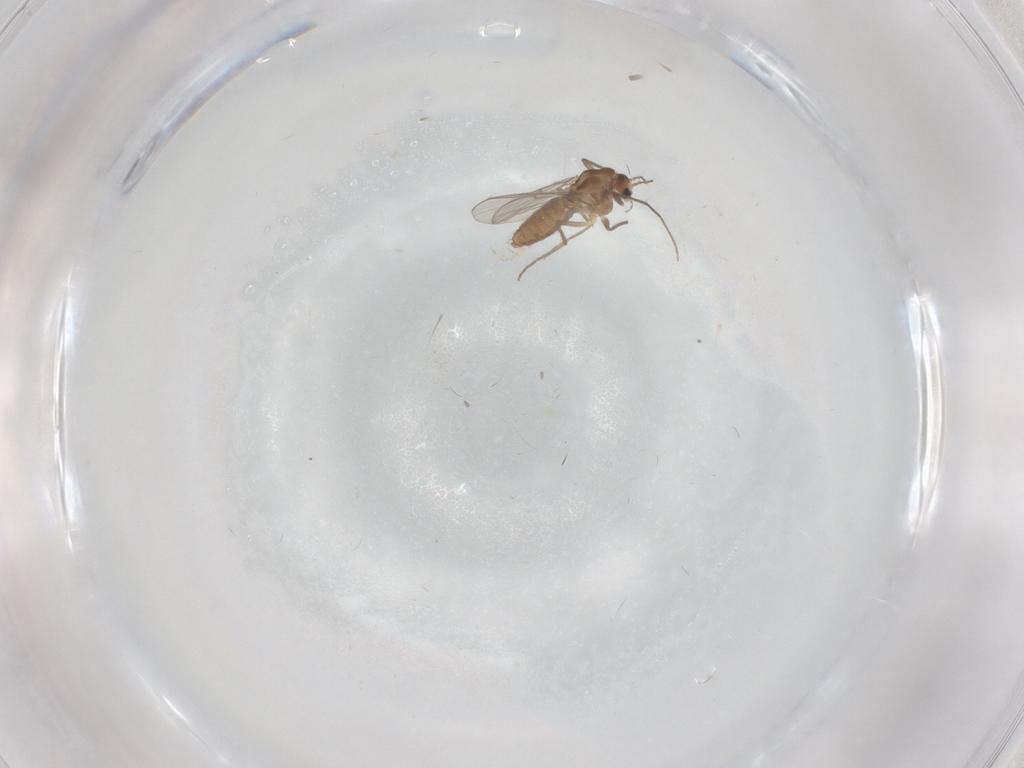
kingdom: Animalia
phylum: Arthropoda
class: Insecta
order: Diptera
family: Chironomidae
